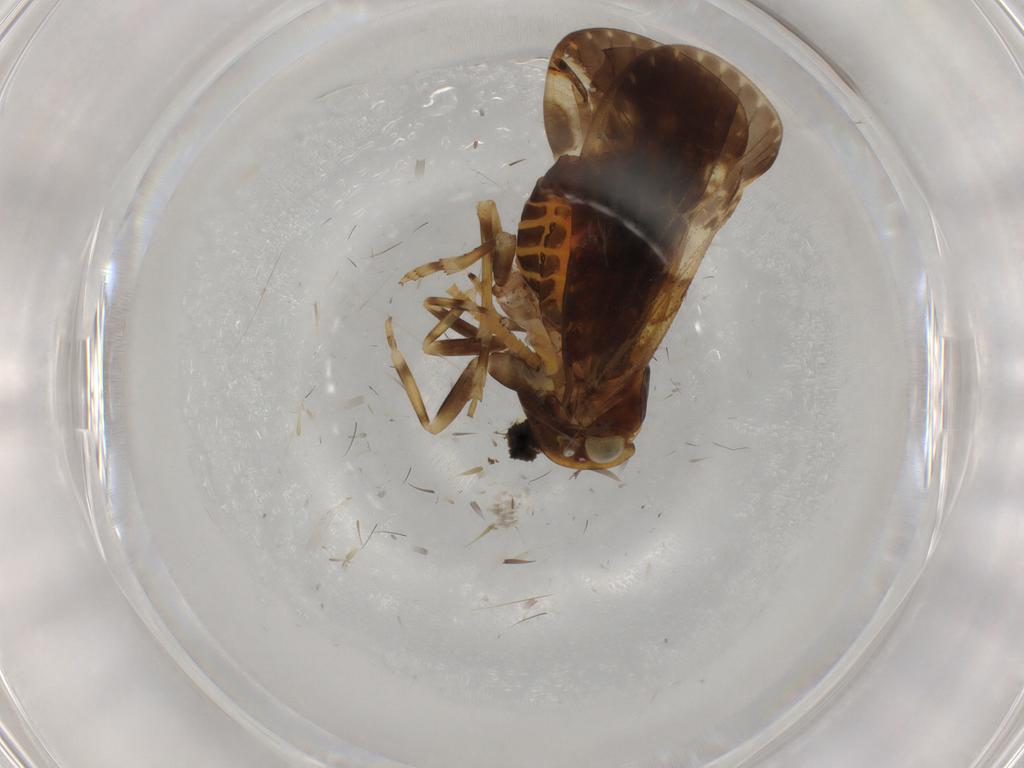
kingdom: Animalia
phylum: Arthropoda
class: Insecta
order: Hemiptera
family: Cixiidae
